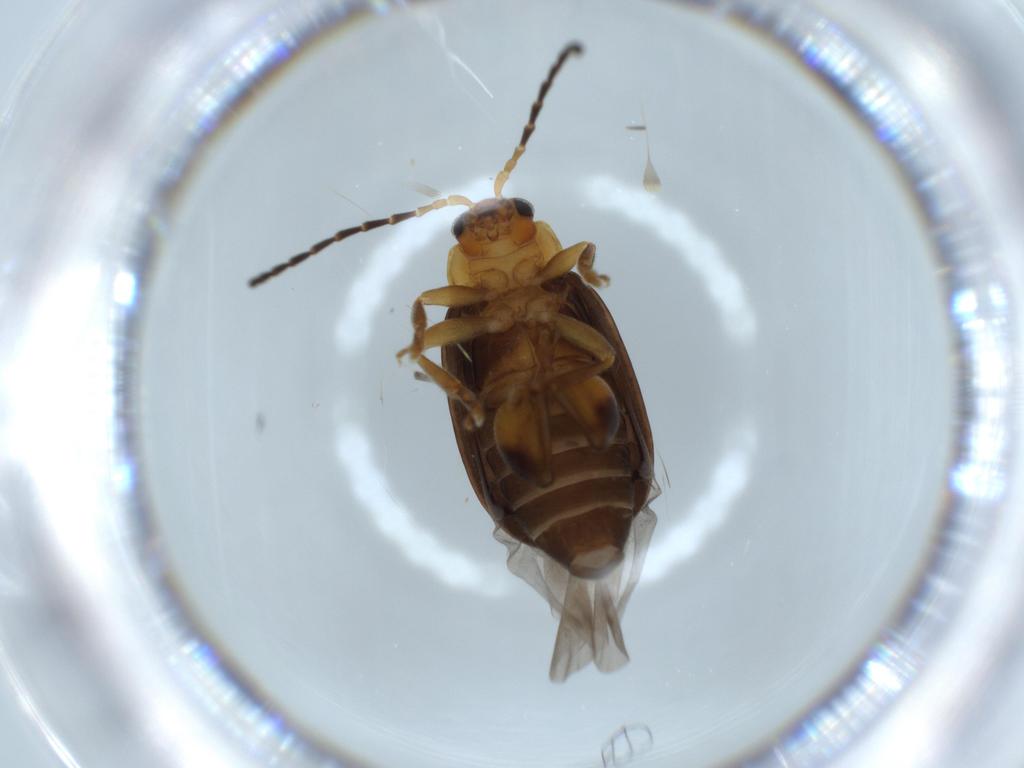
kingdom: Animalia
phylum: Arthropoda
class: Insecta
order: Coleoptera
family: Chrysomelidae
